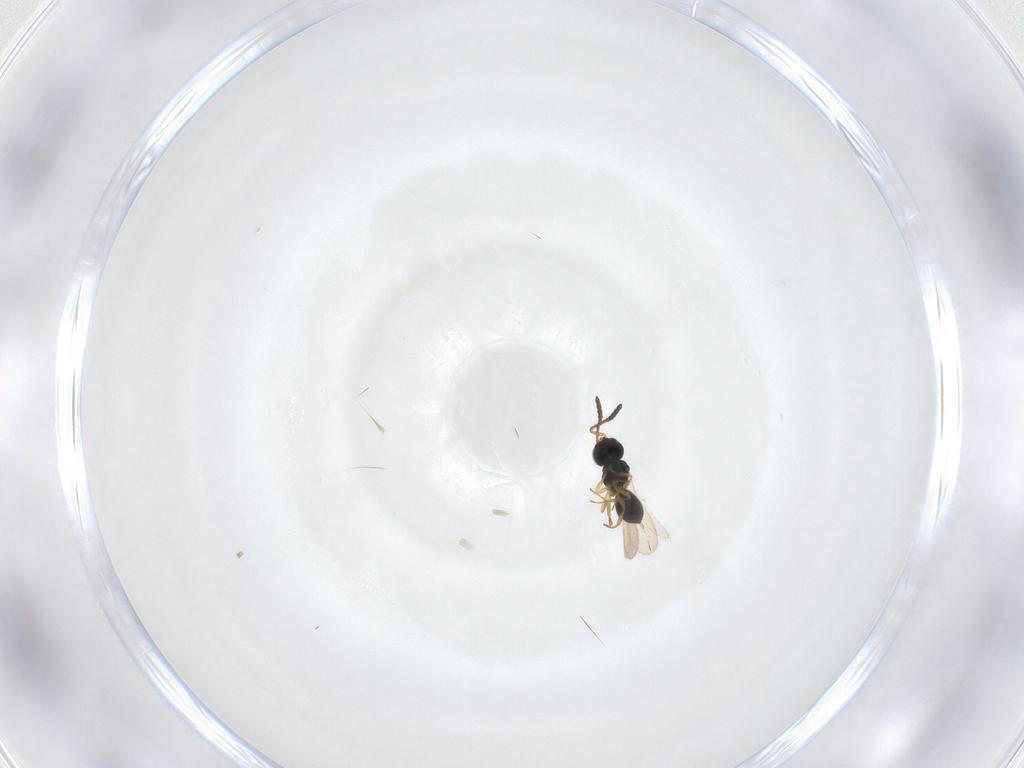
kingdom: Animalia
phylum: Arthropoda
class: Insecta
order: Hymenoptera
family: Scelionidae
